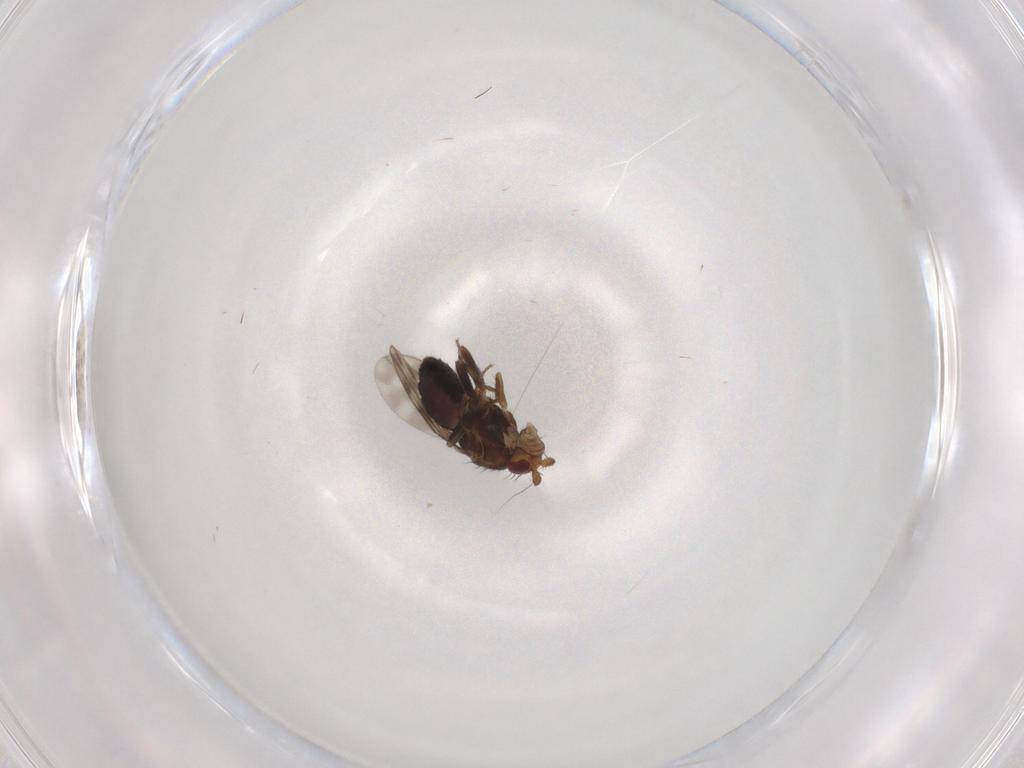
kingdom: Animalia
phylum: Arthropoda
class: Insecta
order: Diptera
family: Sphaeroceridae
